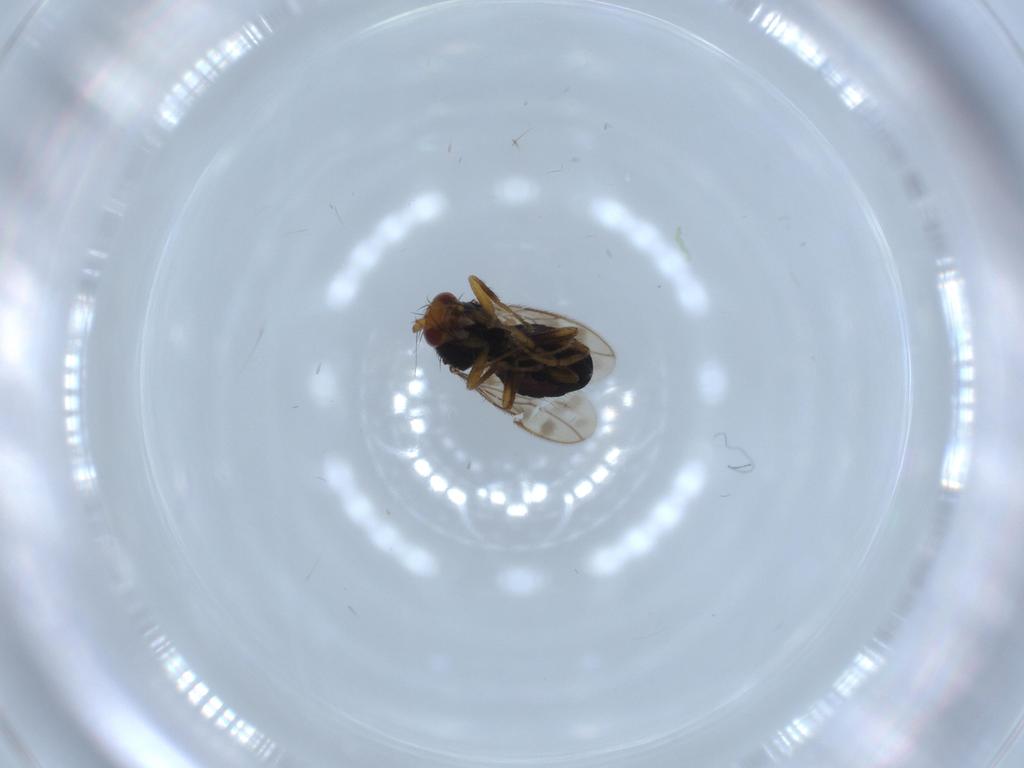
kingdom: Animalia
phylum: Arthropoda
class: Insecta
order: Diptera
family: Sphaeroceridae
